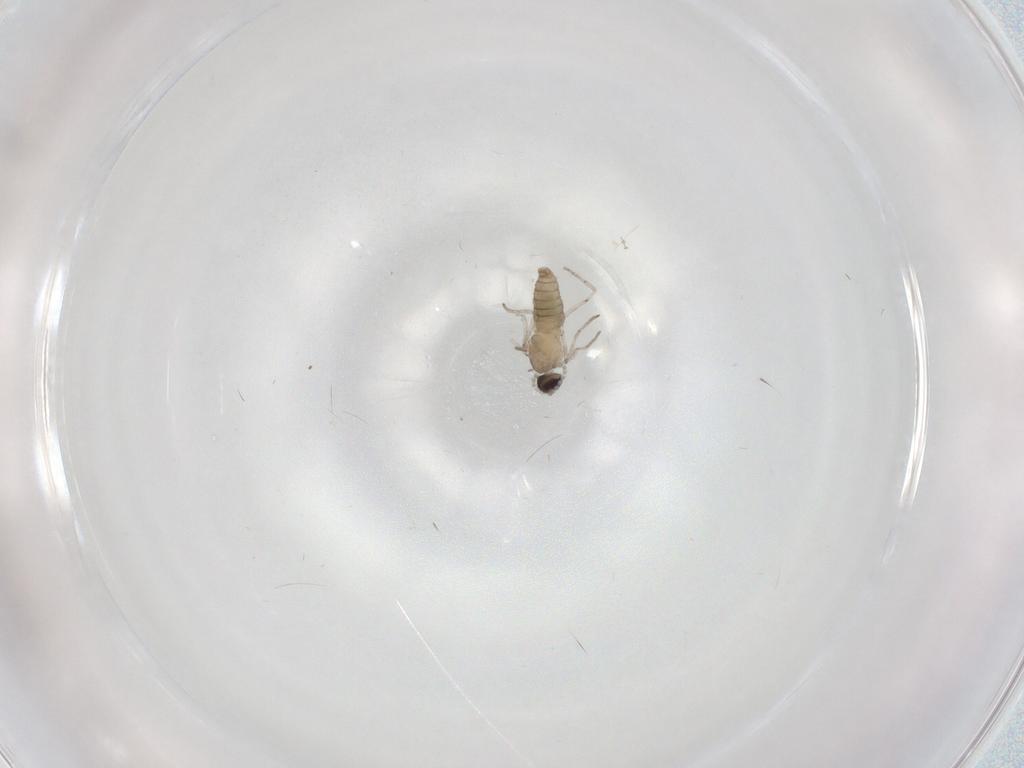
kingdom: Animalia
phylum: Arthropoda
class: Insecta
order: Diptera
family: Cecidomyiidae
